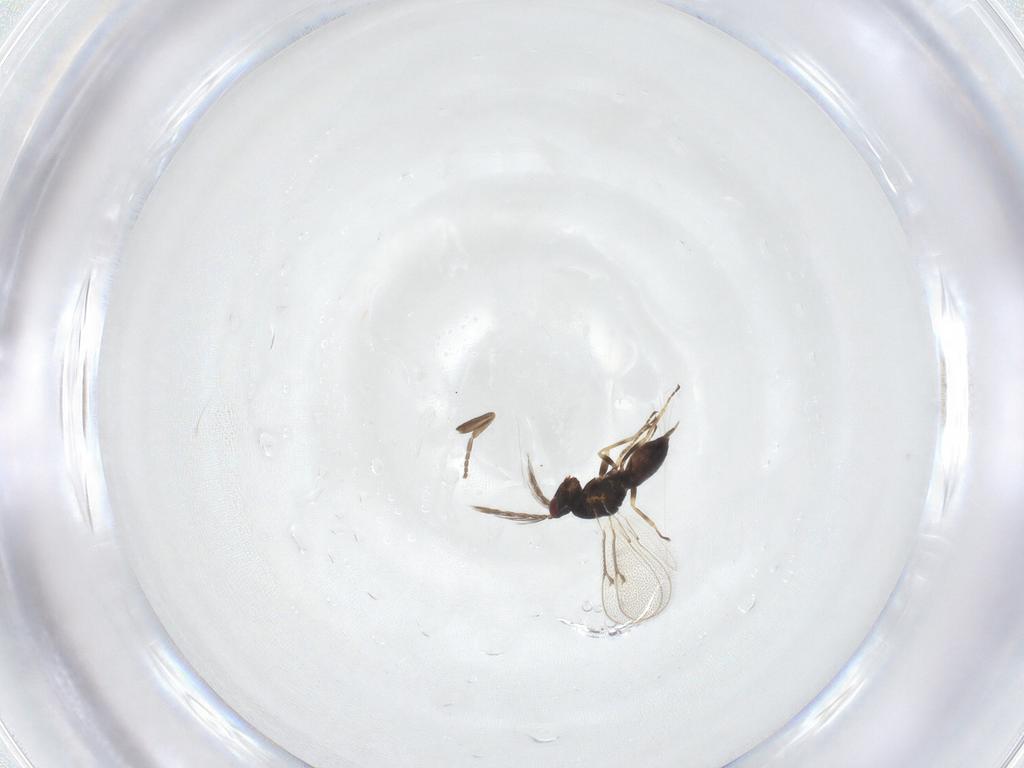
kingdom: Animalia
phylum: Arthropoda
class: Insecta
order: Hymenoptera
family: Eulophidae
